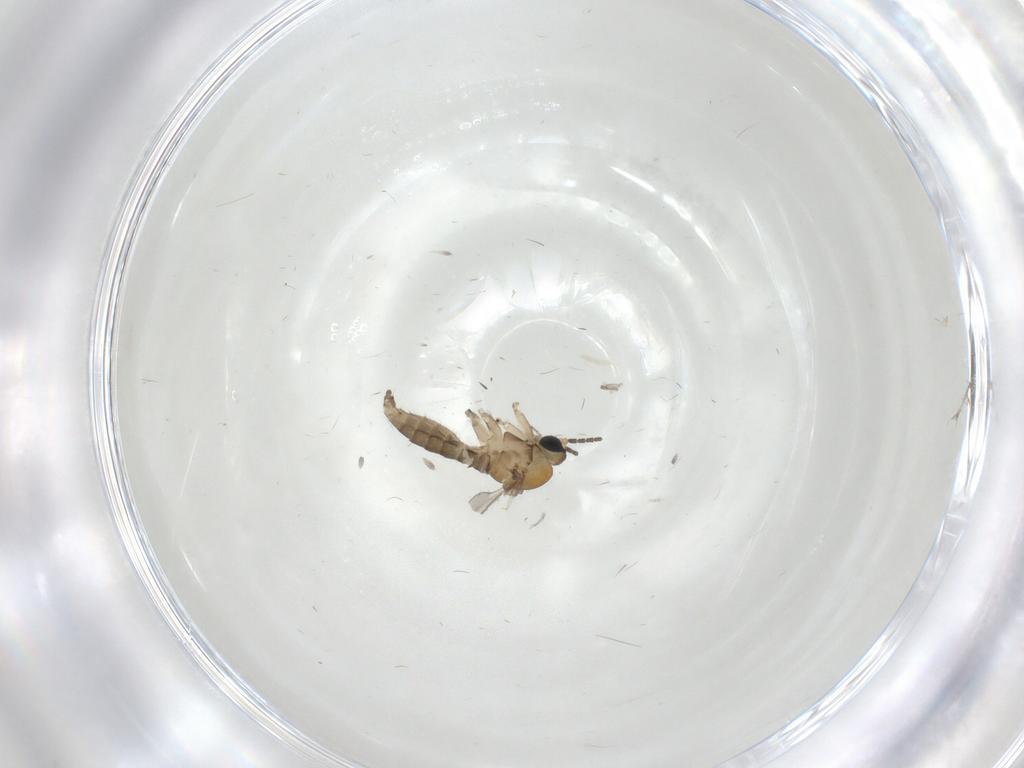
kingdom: Animalia
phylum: Arthropoda
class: Insecta
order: Diptera
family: Sciaridae
